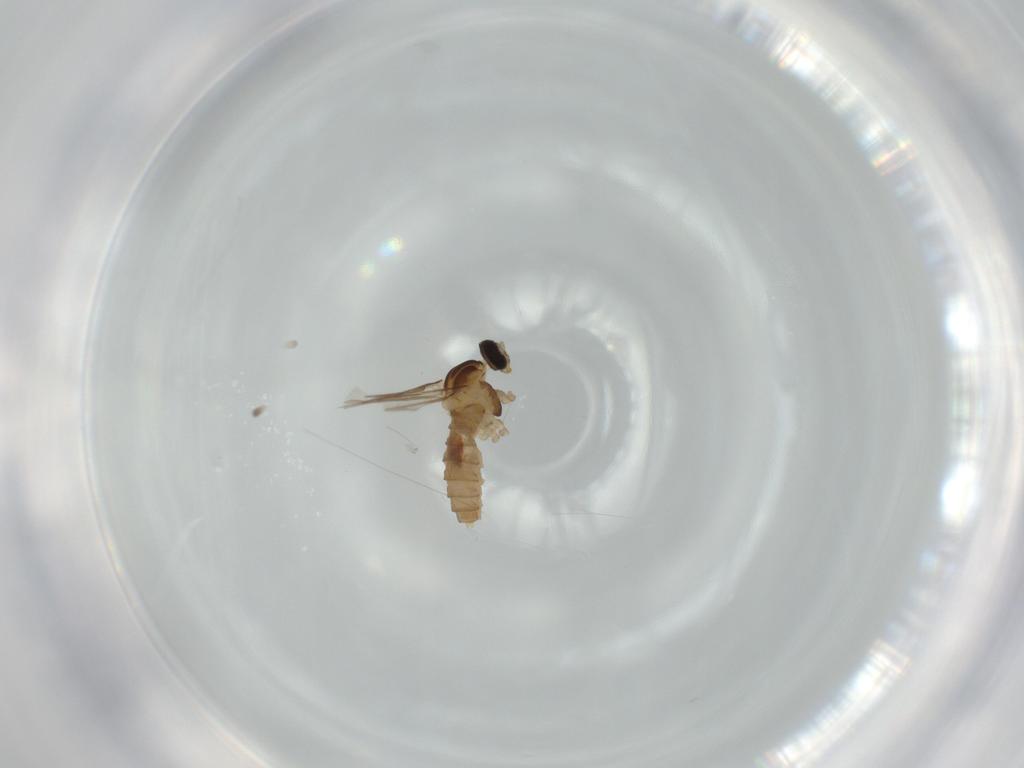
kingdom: Animalia
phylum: Arthropoda
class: Insecta
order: Diptera
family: Cecidomyiidae
